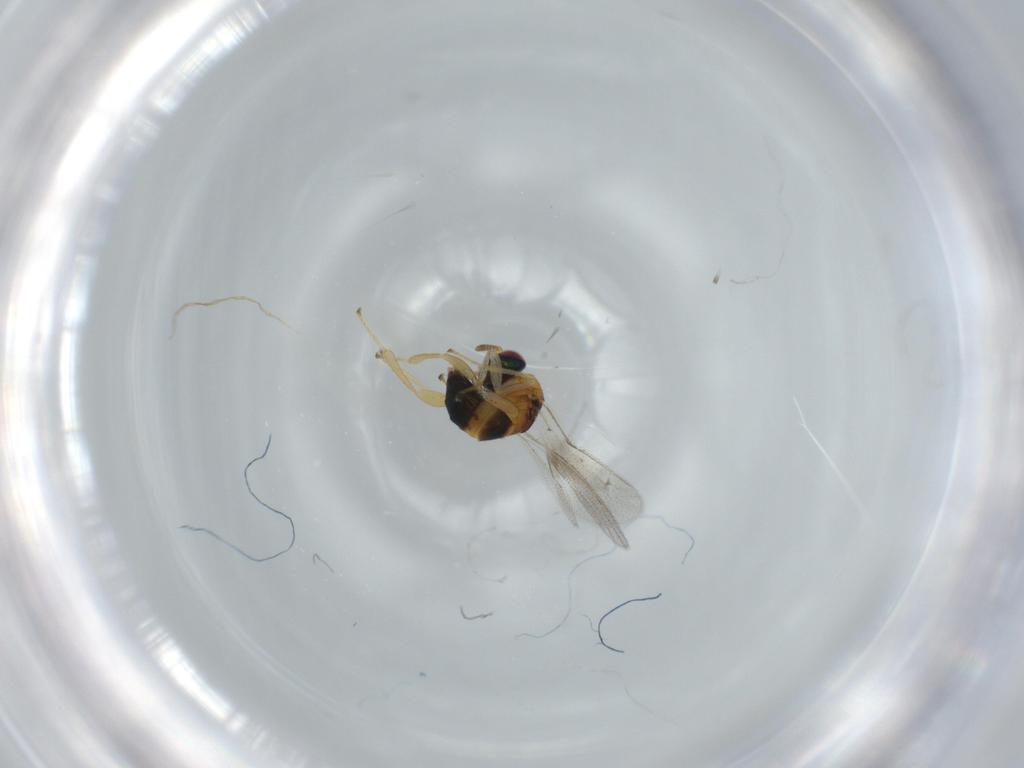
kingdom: Animalia
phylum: Arthropoda
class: Insecta
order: Hymenoptera
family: Torymidae
